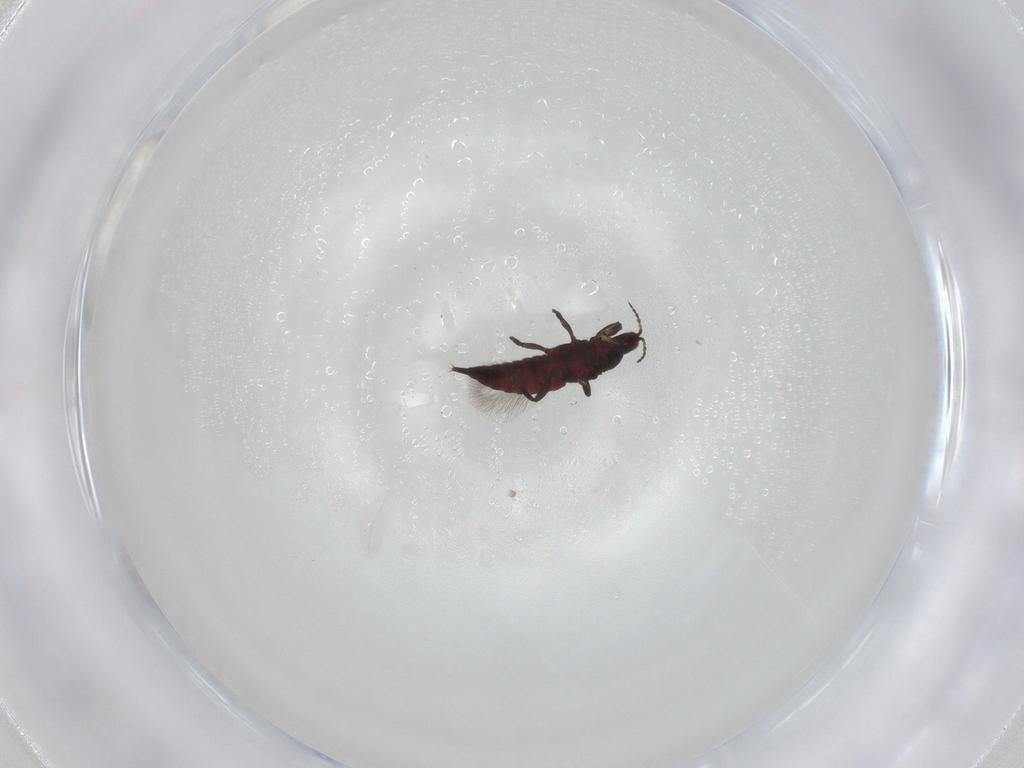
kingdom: Animalia
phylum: Arthropoda
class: Insecta
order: Thysanoptera
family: Phlaeothripidae
